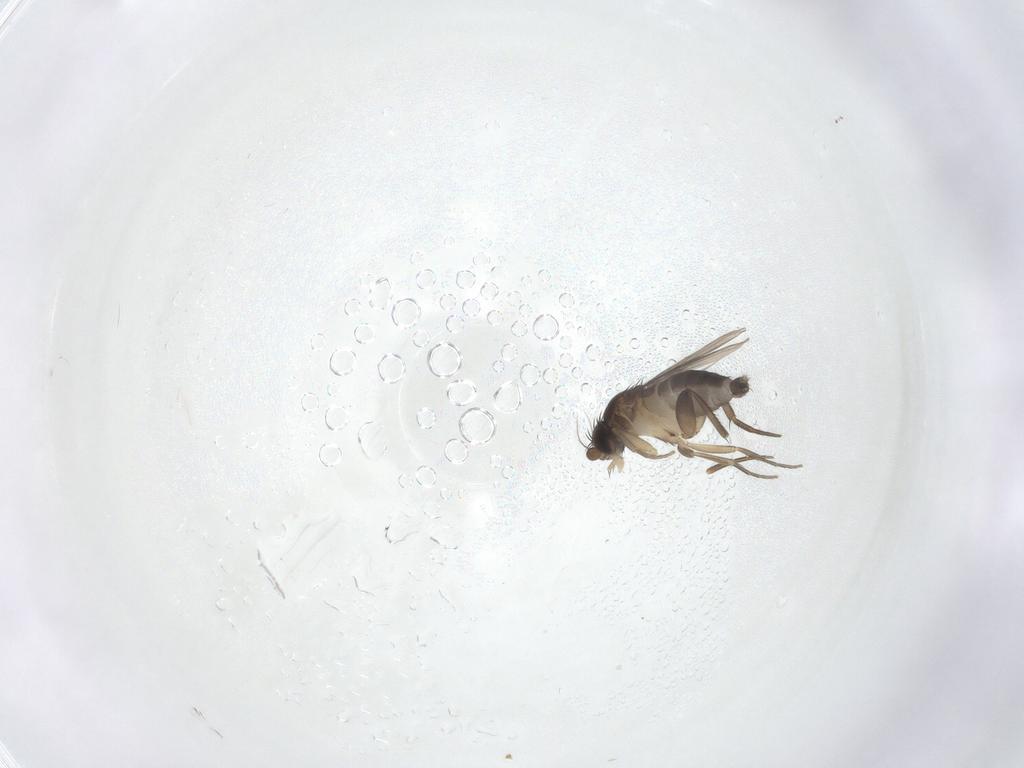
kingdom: Animalia
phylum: Arthropoda
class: Insecta
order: Diptera
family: Phoridae
